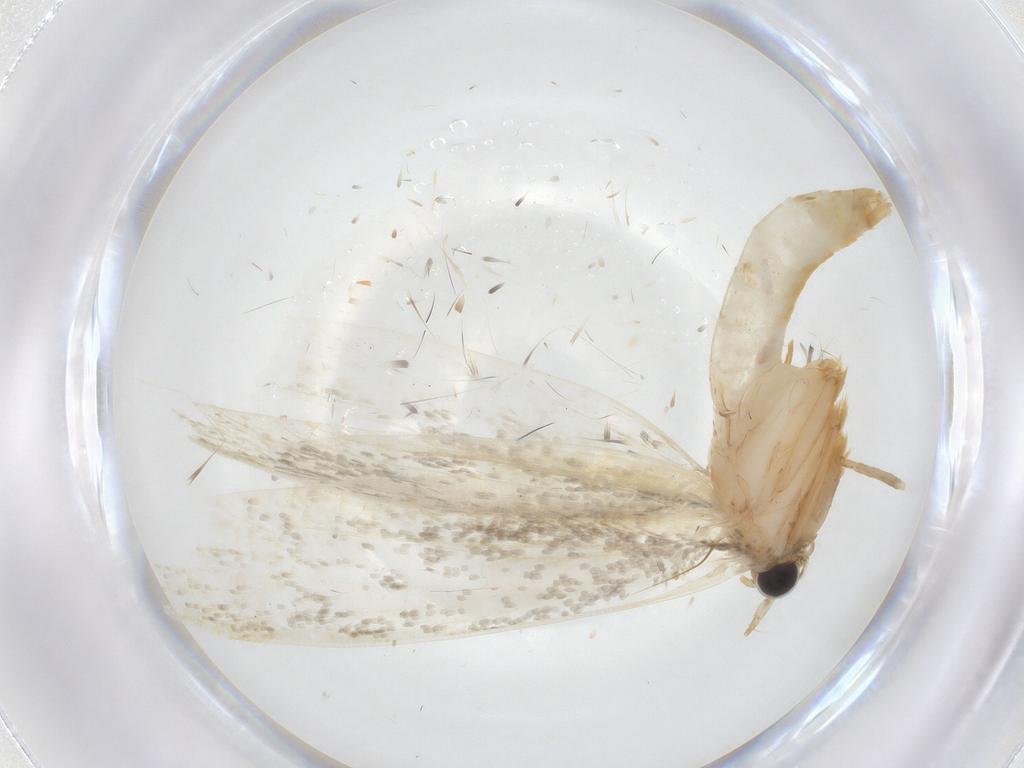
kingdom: Animalia
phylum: Arthropoda
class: Insecta
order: Lepidoptera
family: Tineidae
